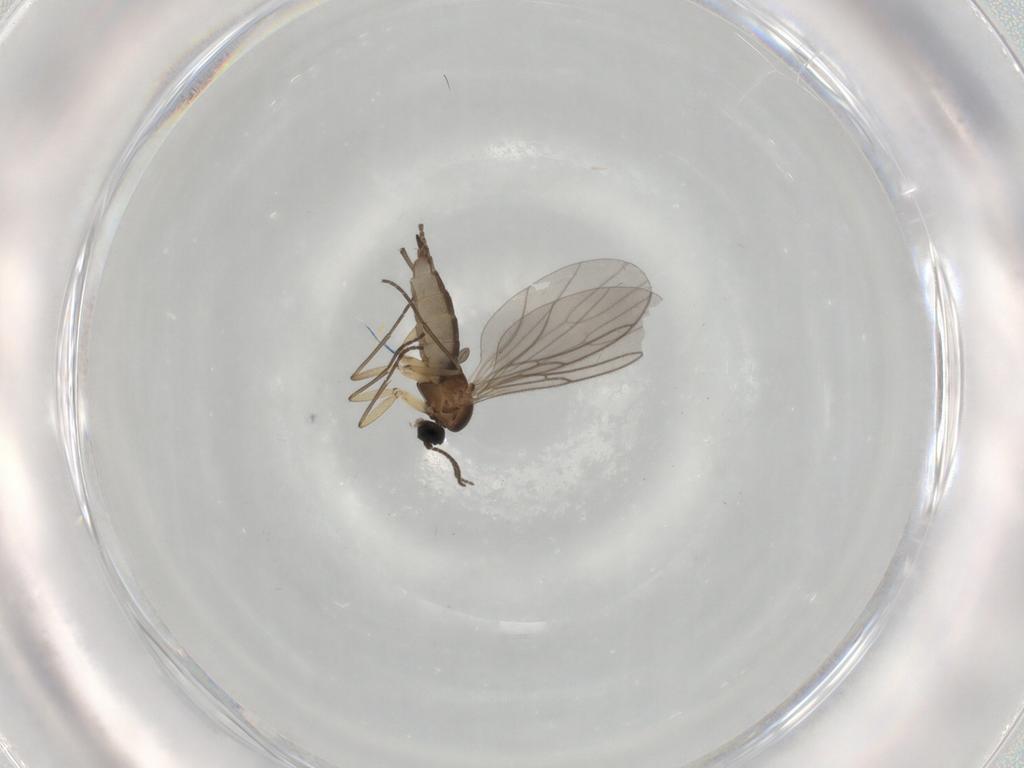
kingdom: Animalia
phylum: Arthropoda
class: Insecta
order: Diptera
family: Sciaridae
